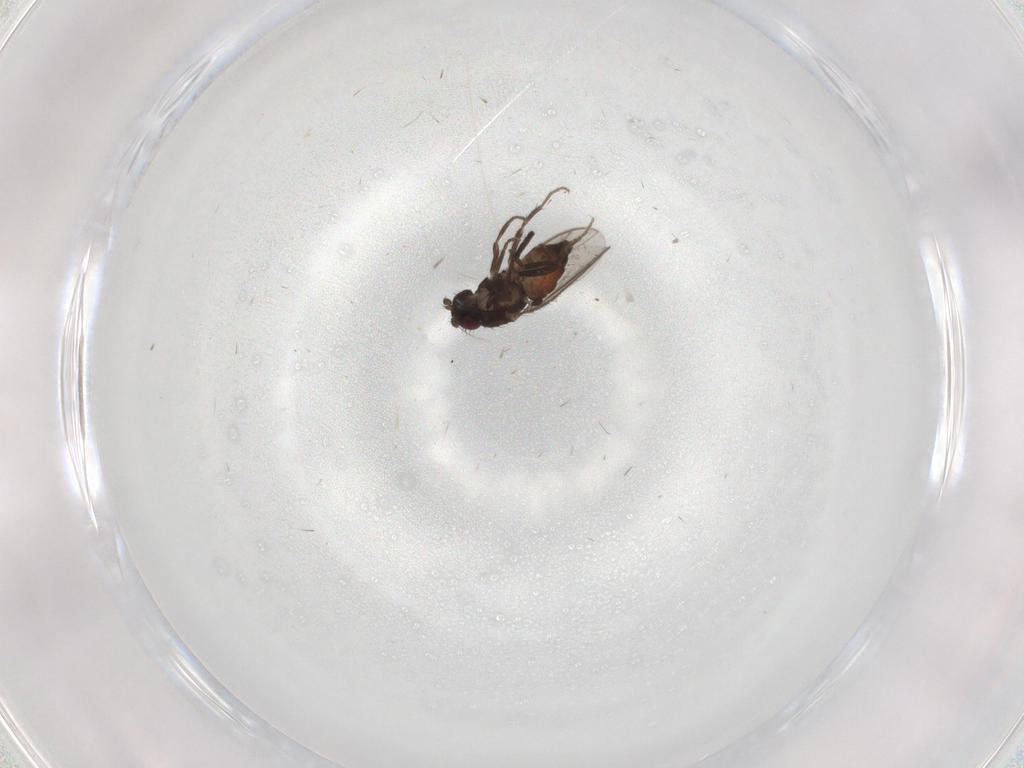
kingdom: Animalia
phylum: Arthropoda
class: Insecta
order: Diptera
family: Sphaeroceridae
